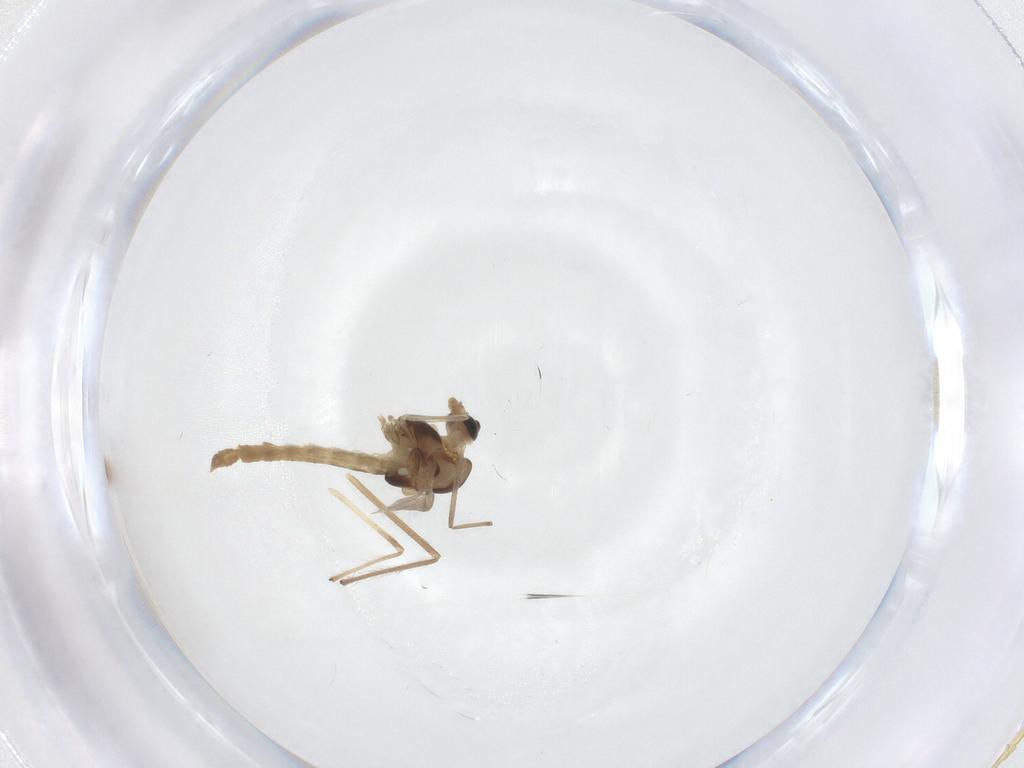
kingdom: Animalia
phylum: Arthropoda
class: Insecta
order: Diptera
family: Chironomidae
